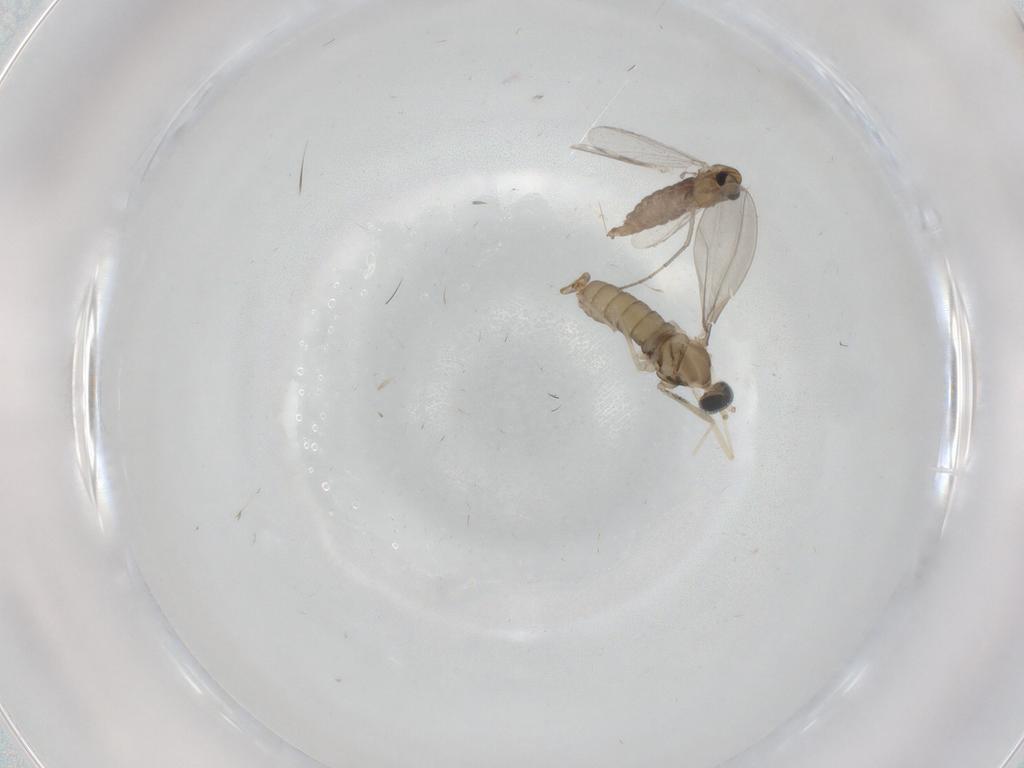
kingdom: Animalia
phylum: Arthropoda
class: Insecta
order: Diptera
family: Chironomidae
